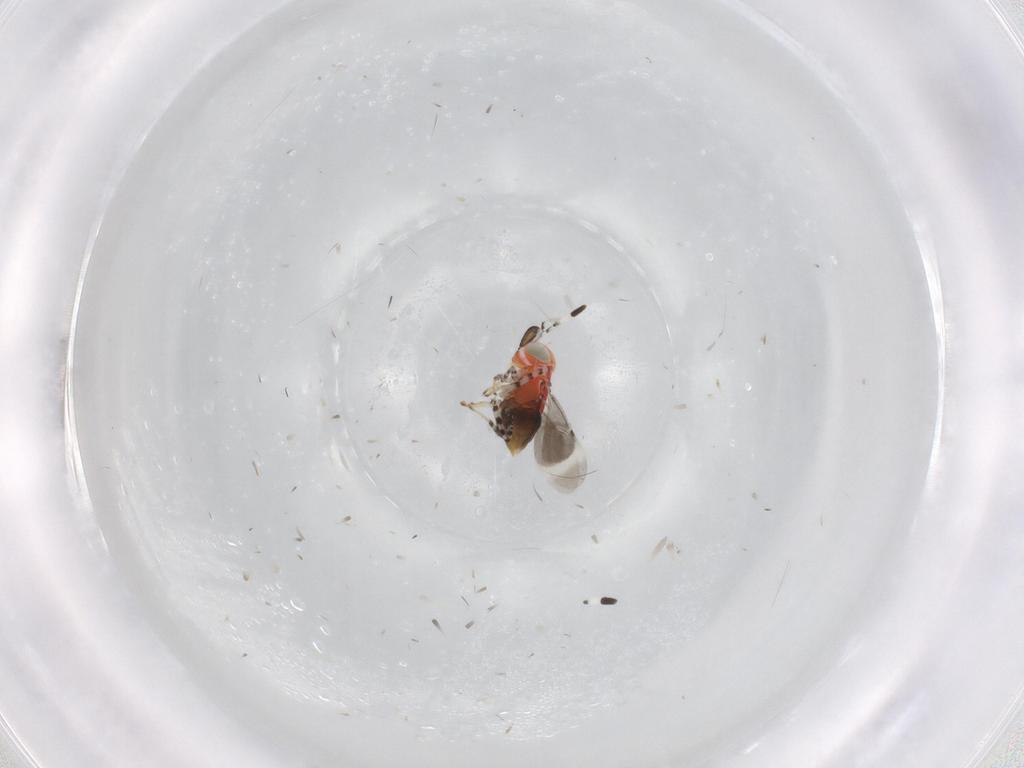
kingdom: Animalia
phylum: Arthropoda
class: Insecta
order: Hymenoptera
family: Encyrtidae
